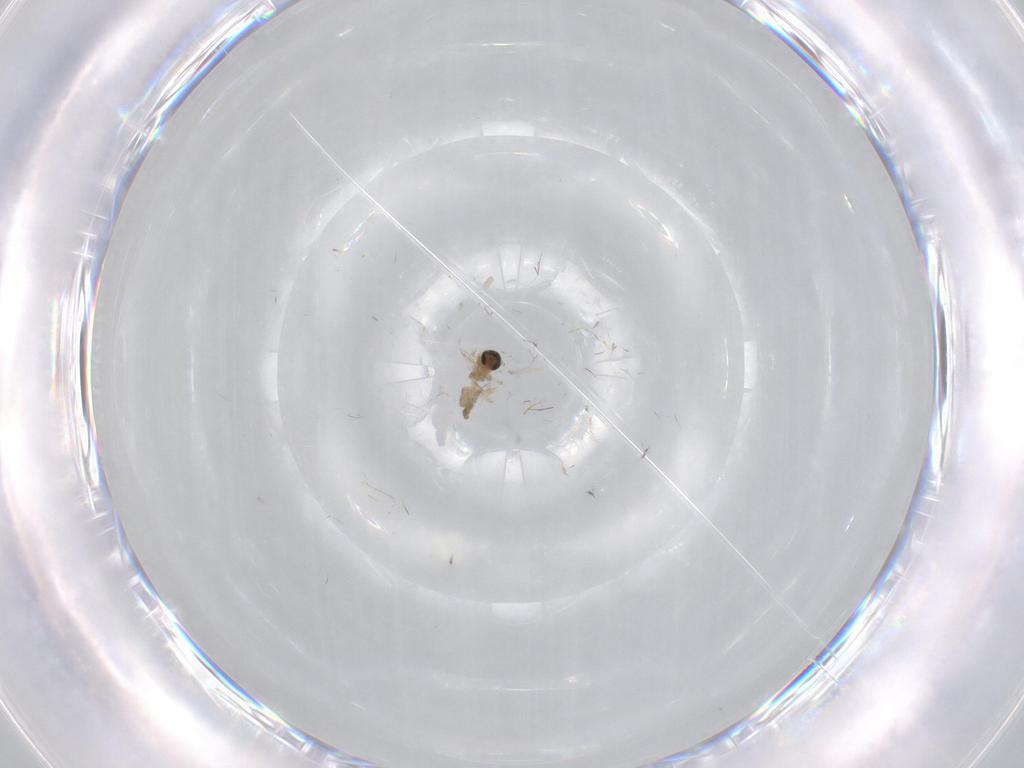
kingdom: Animalia
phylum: Arthropoda
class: Insecta
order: Diptera
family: Cecidomyiidae
